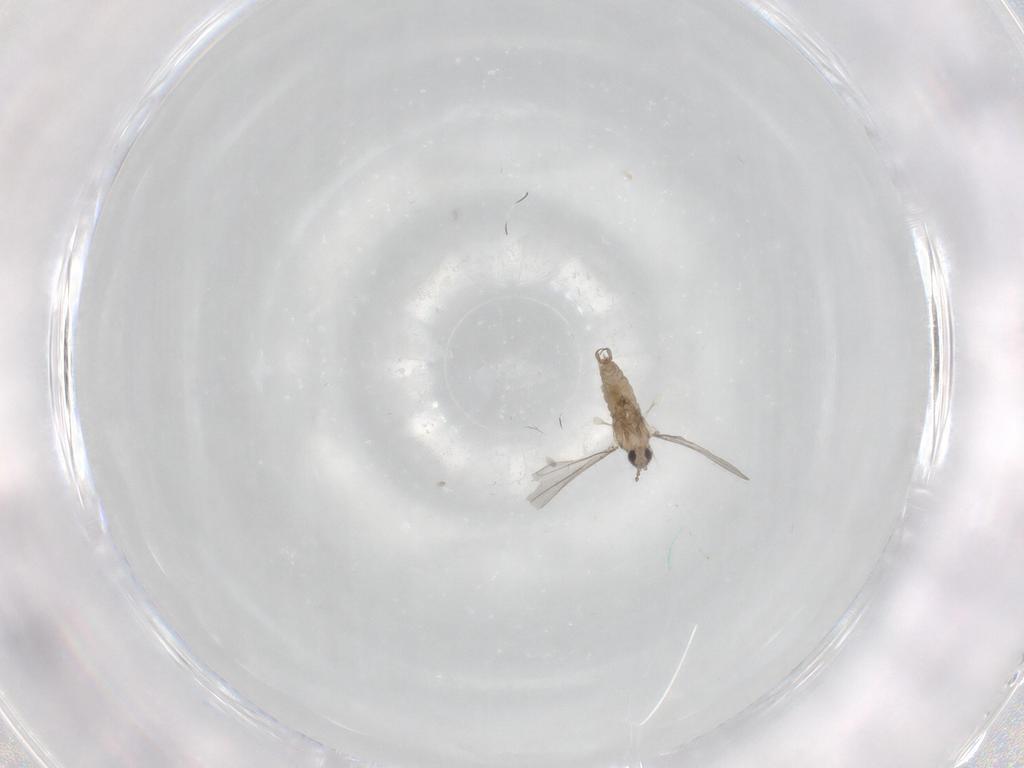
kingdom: Animalia
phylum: Arthropoda
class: Insecta
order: Diptera
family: Cecidomyiidae
